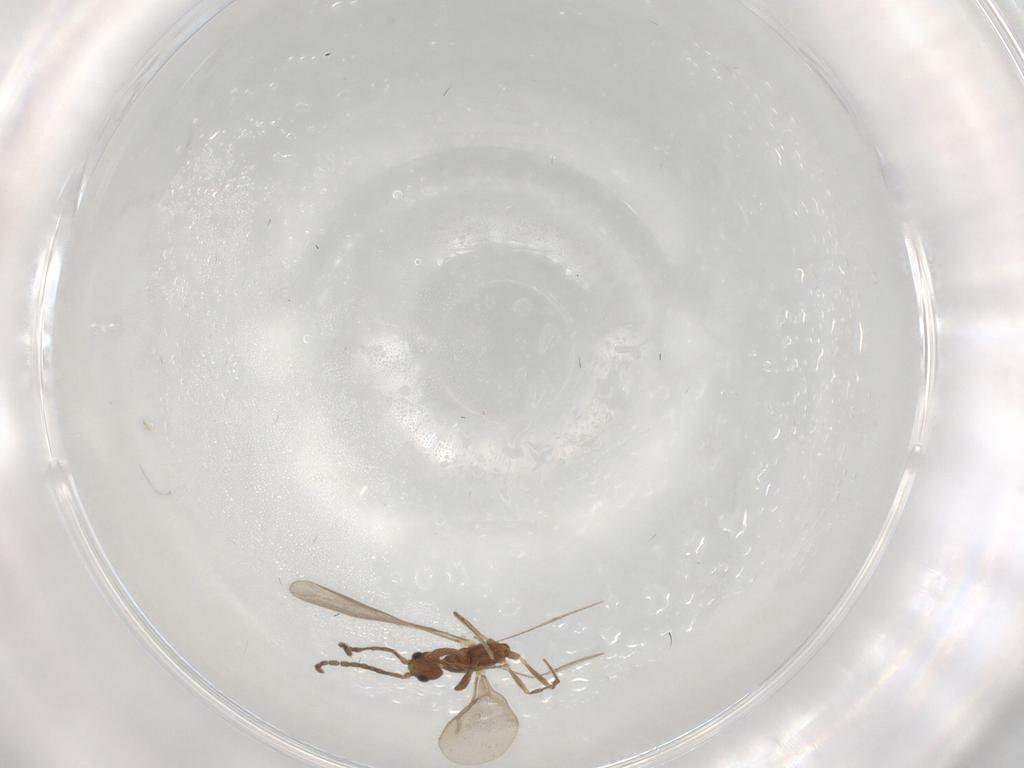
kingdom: Animalia
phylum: Arthropoda
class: Insecta
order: Hymenoptera
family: Formicidae
